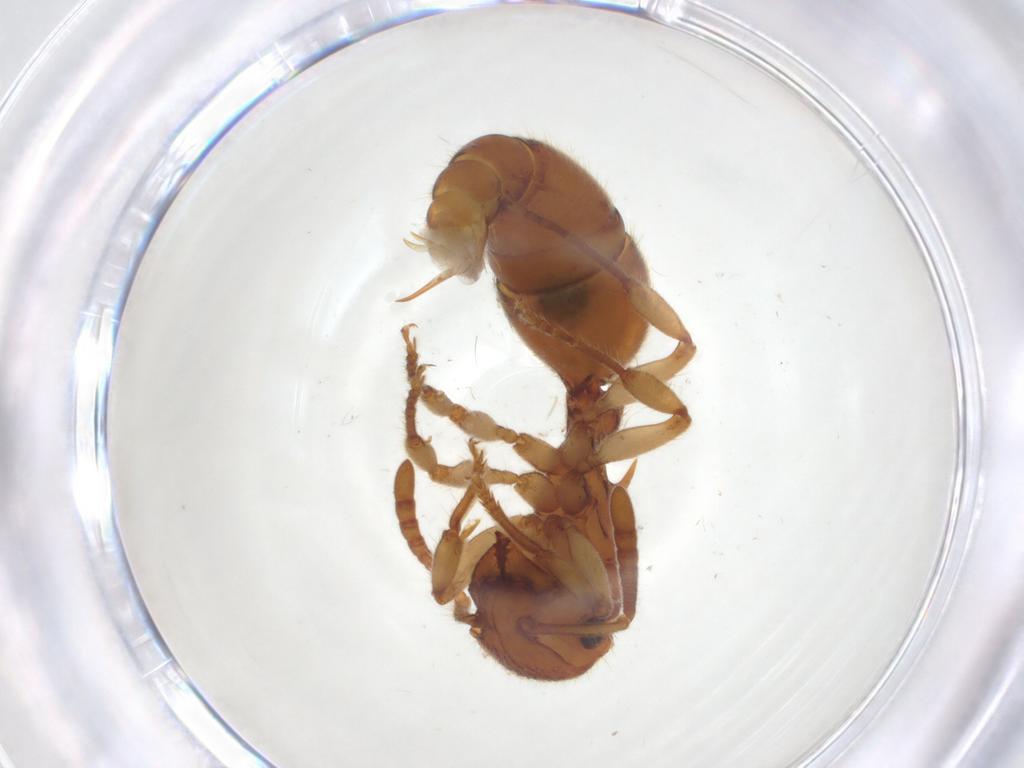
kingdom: Animalia
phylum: Arthropoda
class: Insecta
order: Hymenoptera
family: Formicidae
